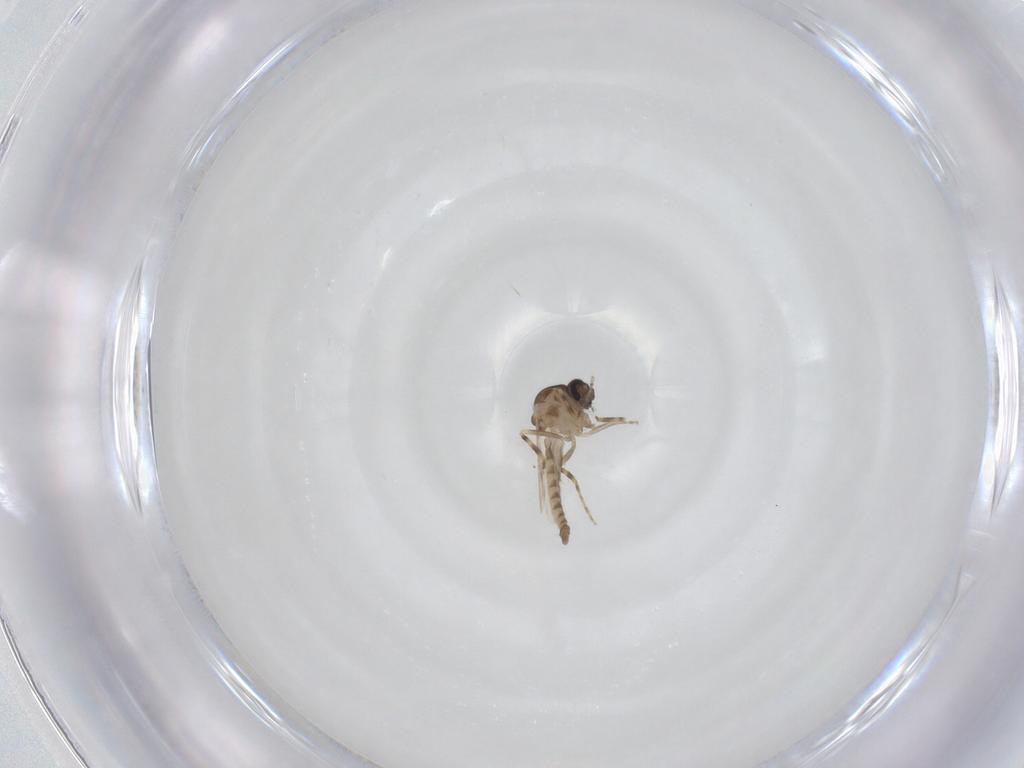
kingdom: Animalia
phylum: Arthropoda
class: Insecta
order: Diptera
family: Ceratopogonidae
